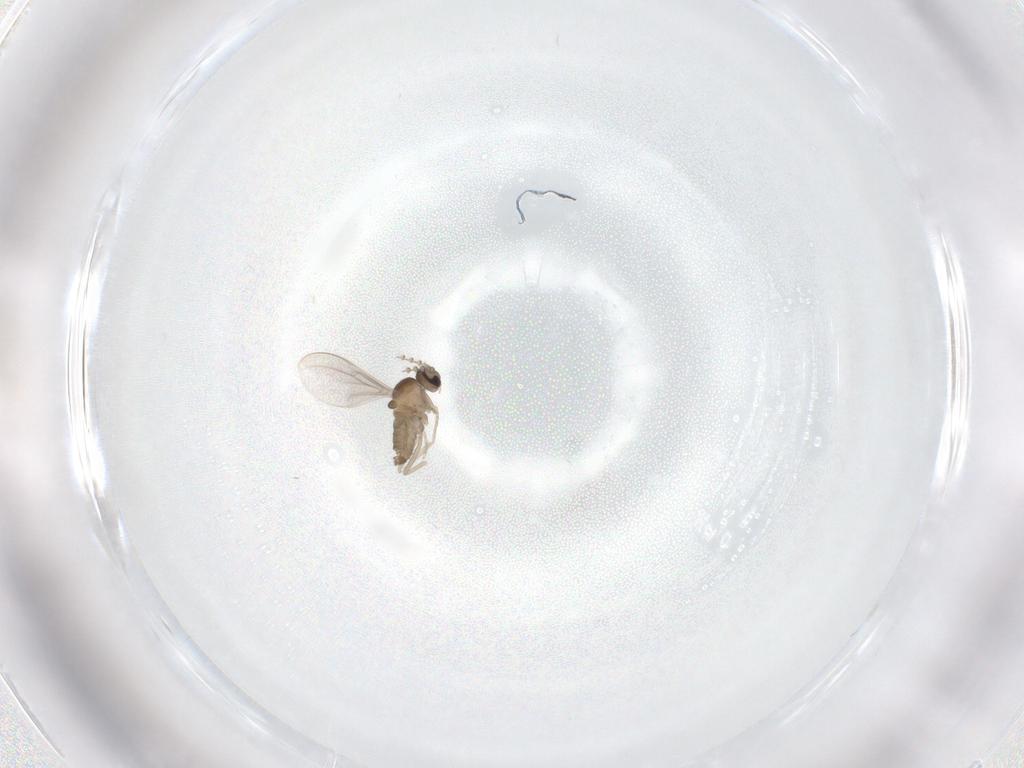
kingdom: Animalia
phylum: Arthropoda
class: Insecta
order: Diptera
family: Cecidomyiidae
